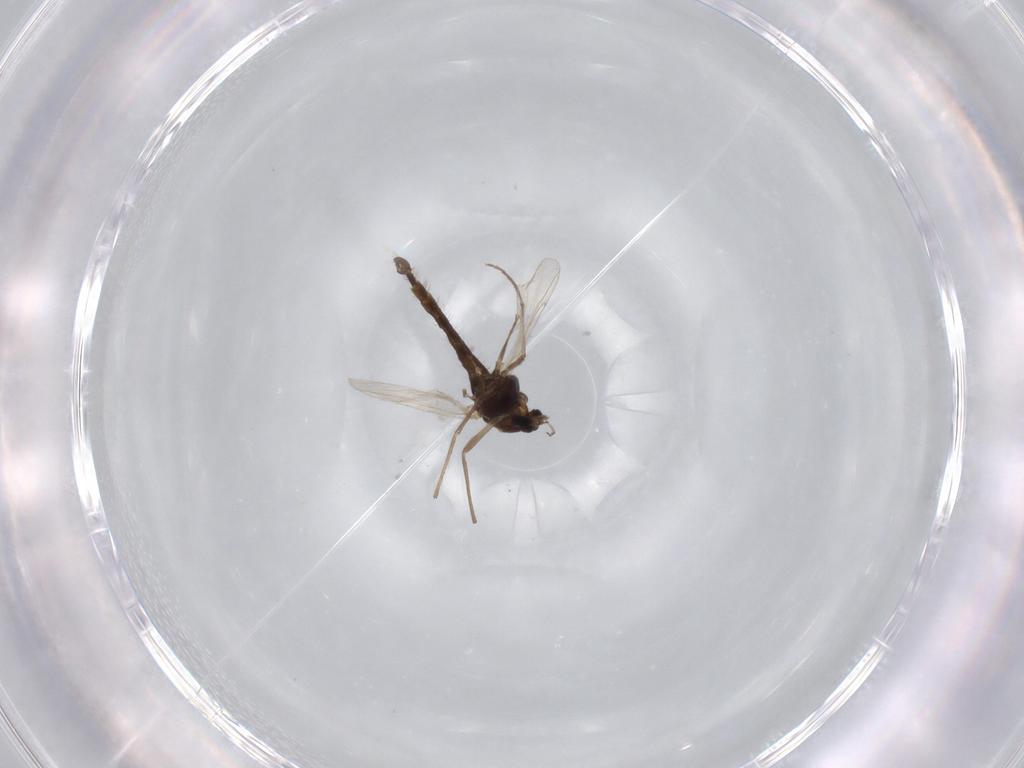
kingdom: Animalia
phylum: Arthropoda
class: Insecta
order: Diptera
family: Chironomidae
